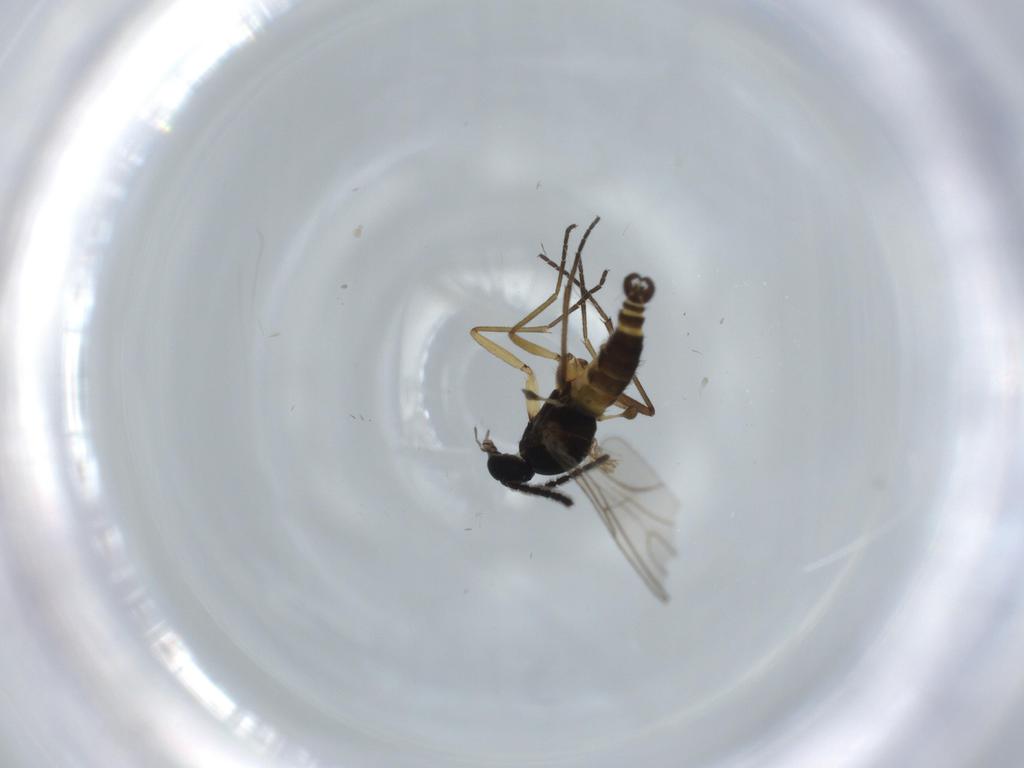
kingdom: Animalia
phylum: Arthropoda
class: Insecta
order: Diptera
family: Sciaridae
